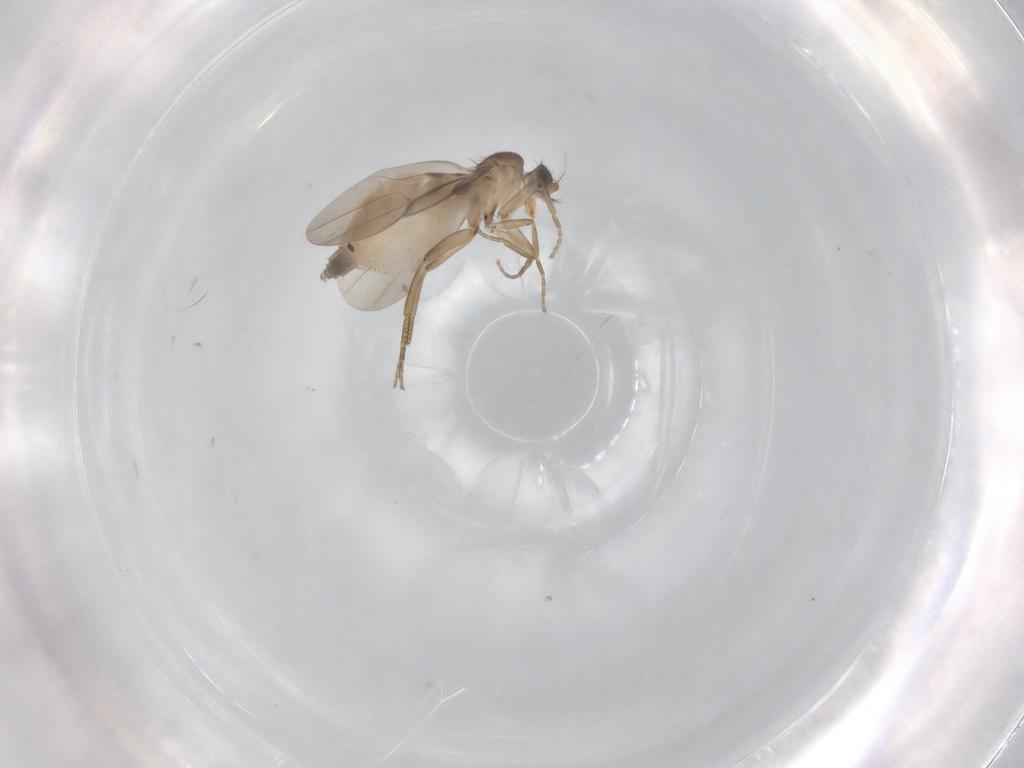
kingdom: Animalia
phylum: Arthropoda
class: Insecta
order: Diptera
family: Phoridae
